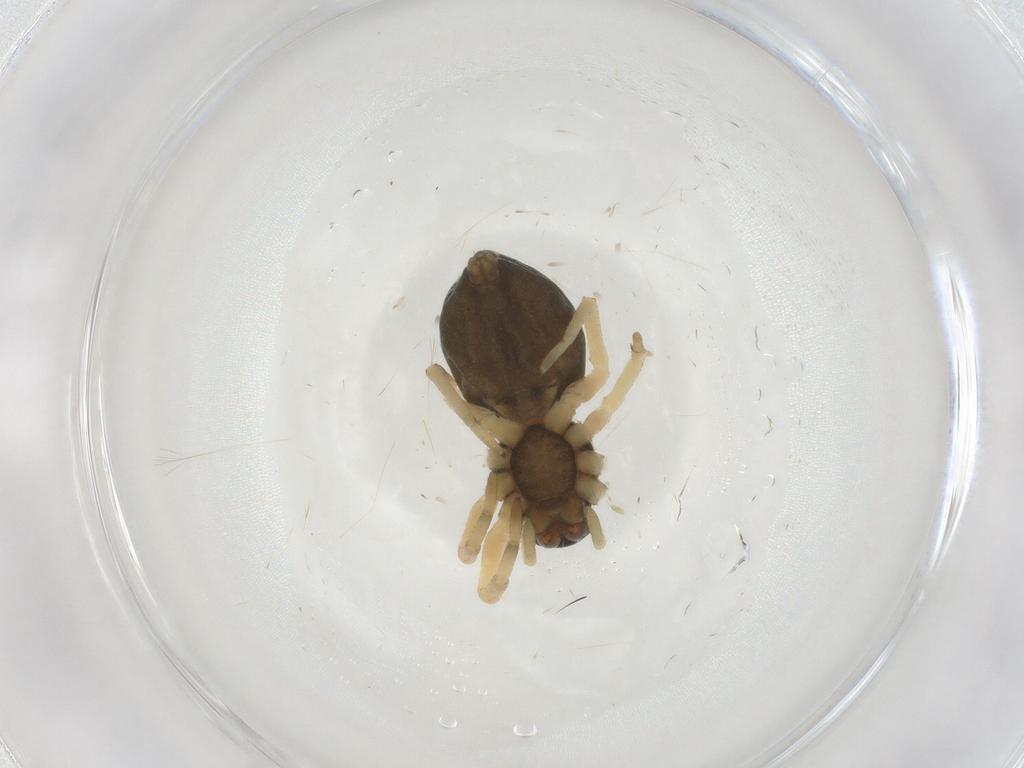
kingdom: Animalia
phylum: Arthropoda
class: Arachnida
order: Araneae
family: Trachelidae
